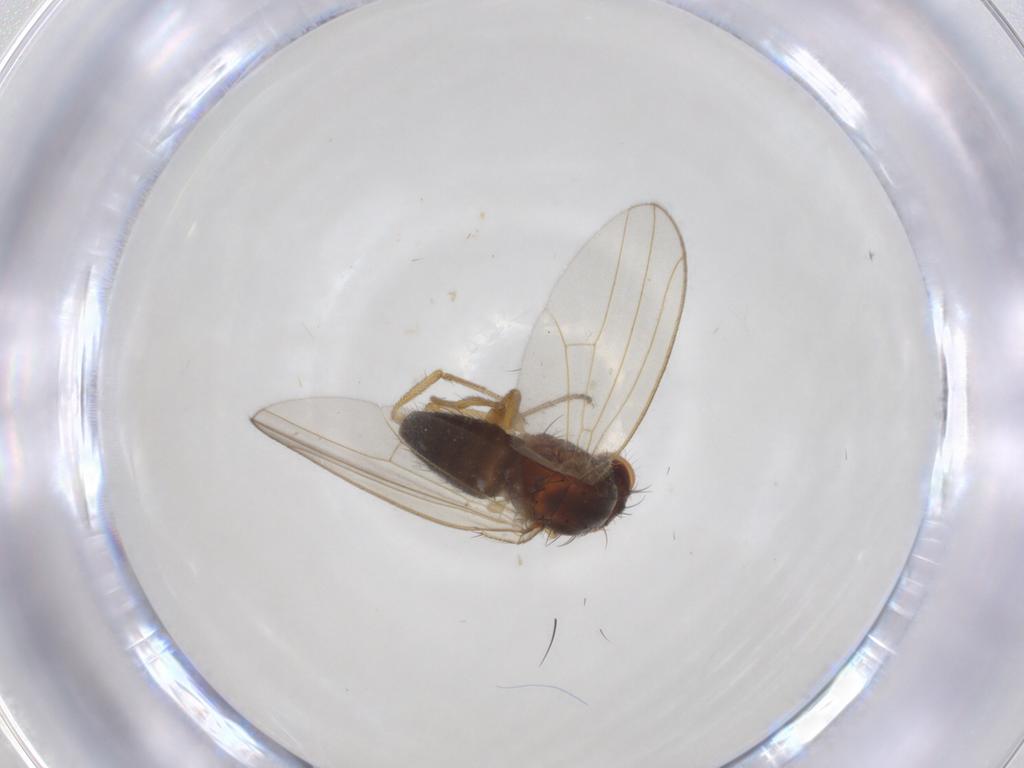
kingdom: Animalia
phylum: Arthropoda
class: Insecta
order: Diptera
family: Dolichopodidae
